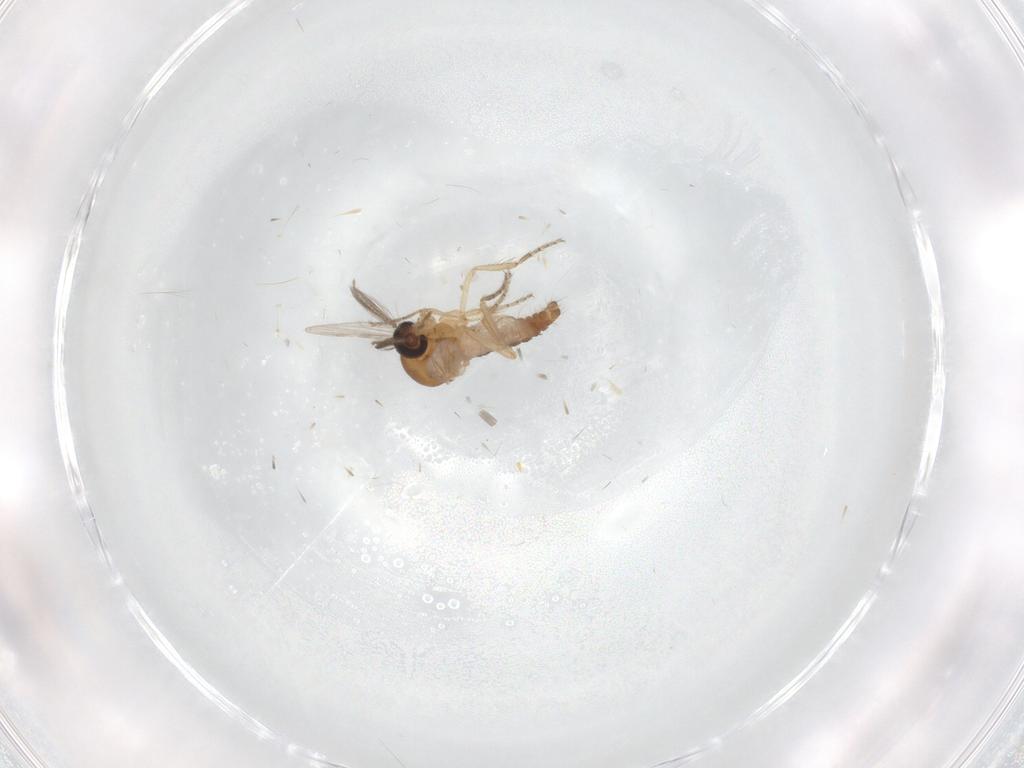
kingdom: Animalia
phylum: Arthropoda
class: Insecta
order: Diptera
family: Ceratopogonidae
